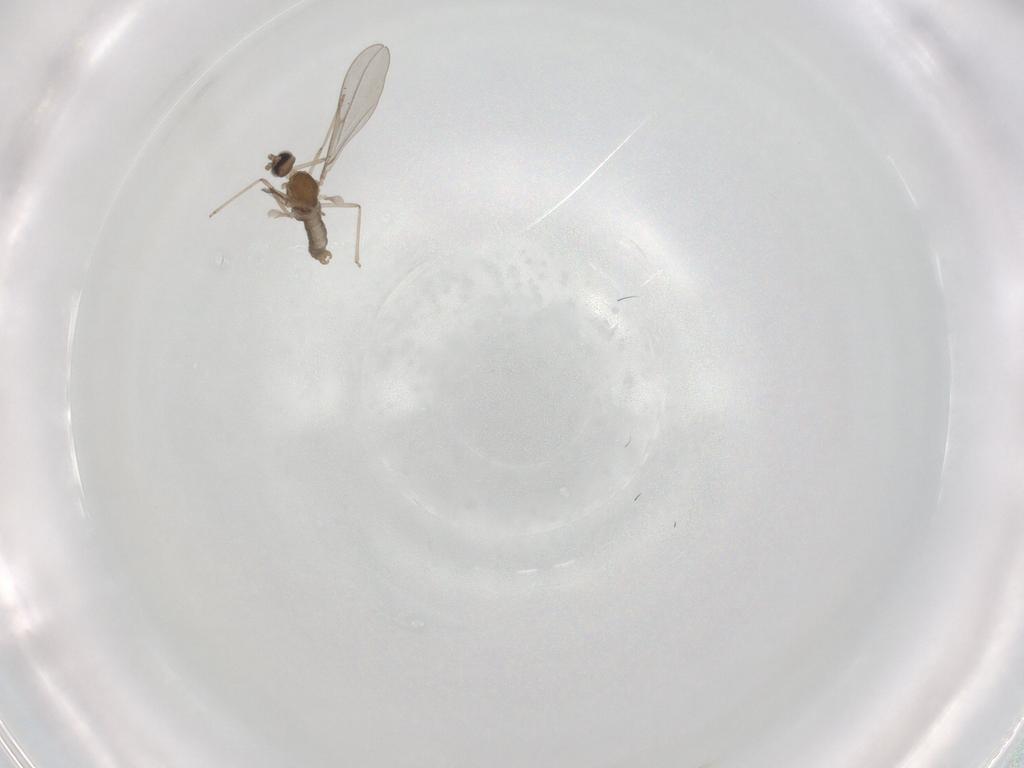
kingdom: Animalia
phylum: Arthropoda
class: Insecta
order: Diptera
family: Cecidomyiidae
